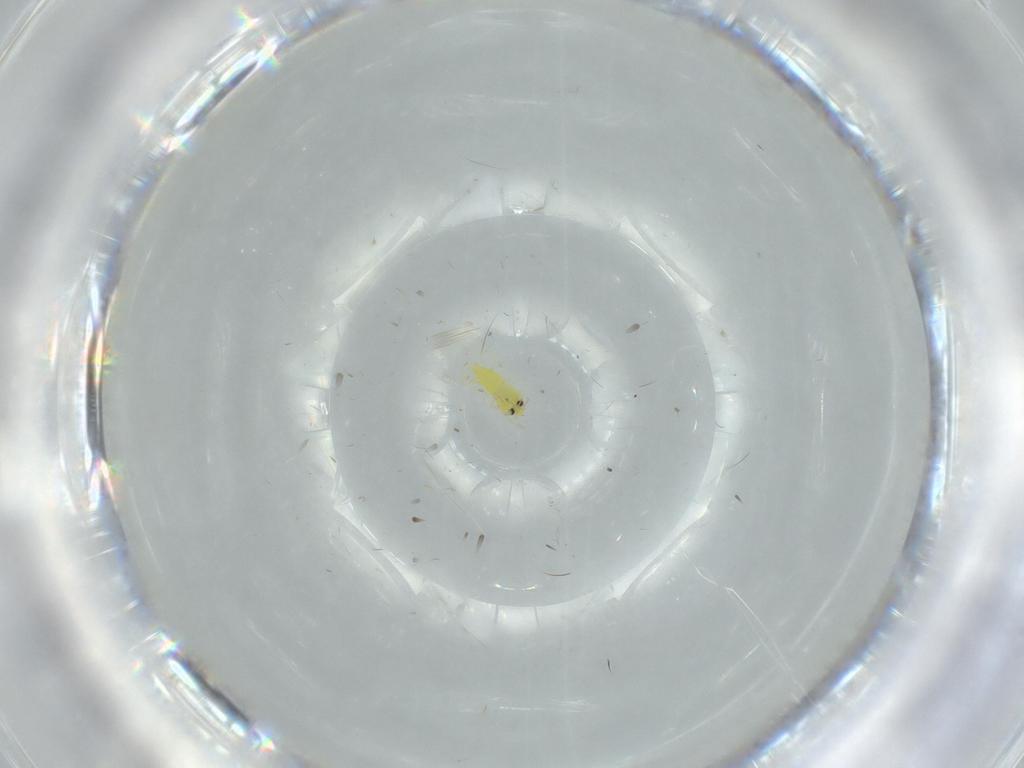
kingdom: Animalia
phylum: Arthropoda
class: Insecta
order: Hemiptera
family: Aleyrodidae
